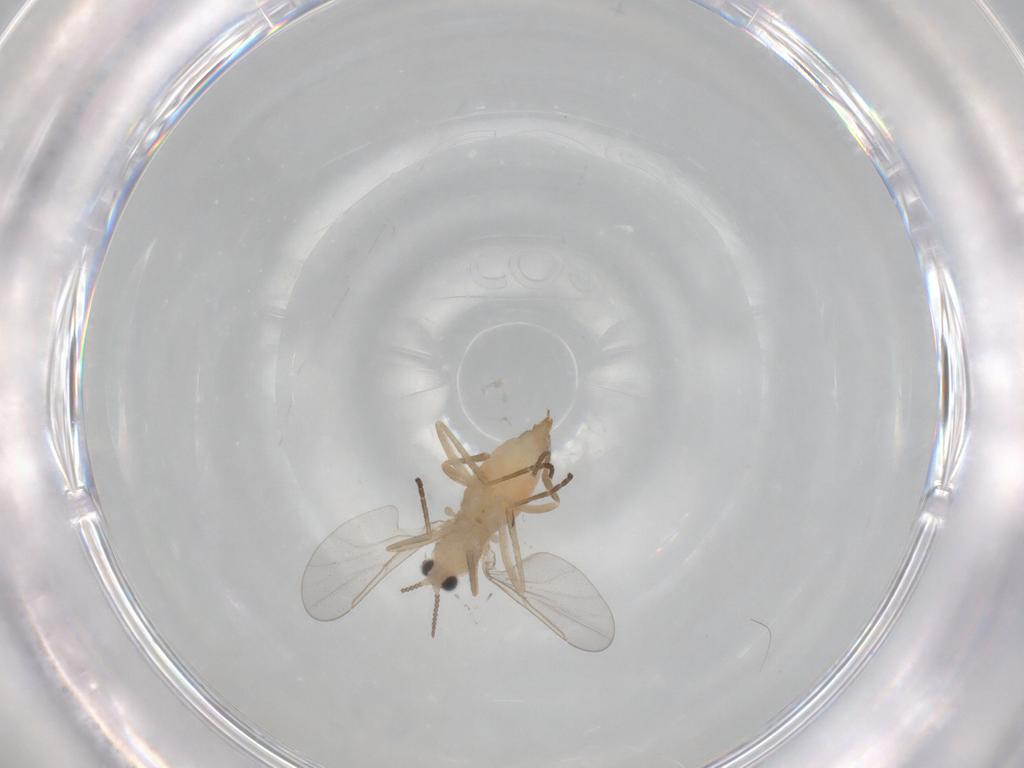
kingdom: Animalia
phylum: Arthropoda
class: Insecta
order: Diptera
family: Cecidomyiidae
